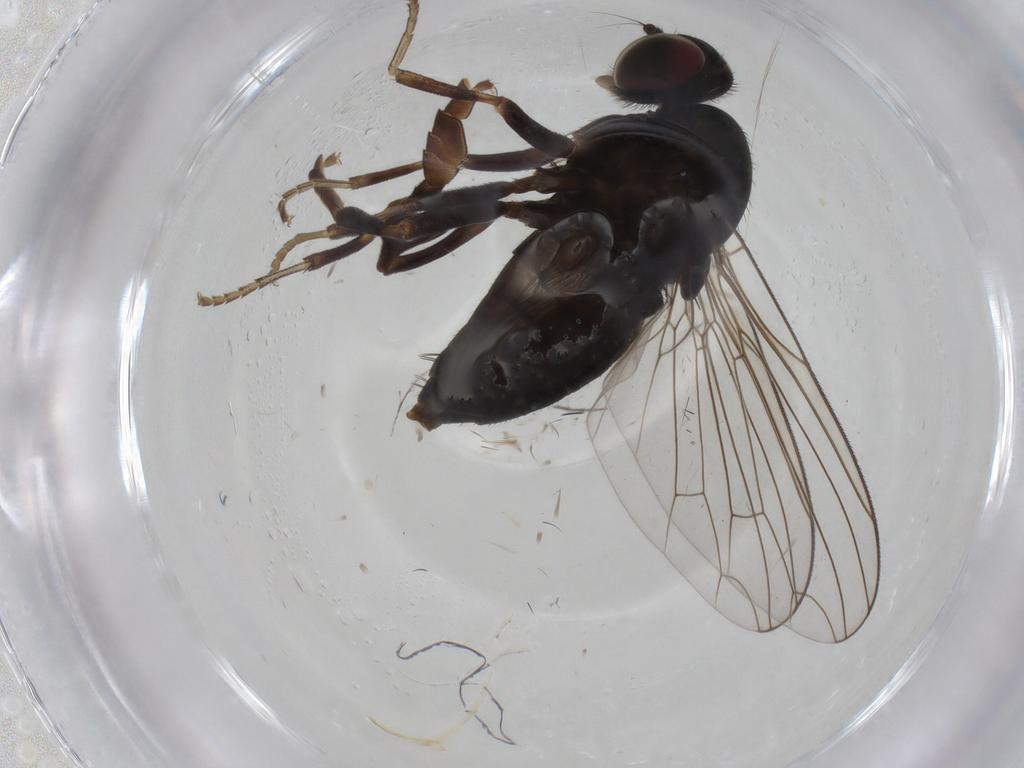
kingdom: Animalia
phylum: Arthropoda
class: Insecta
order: Diptera
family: Platypezidae
